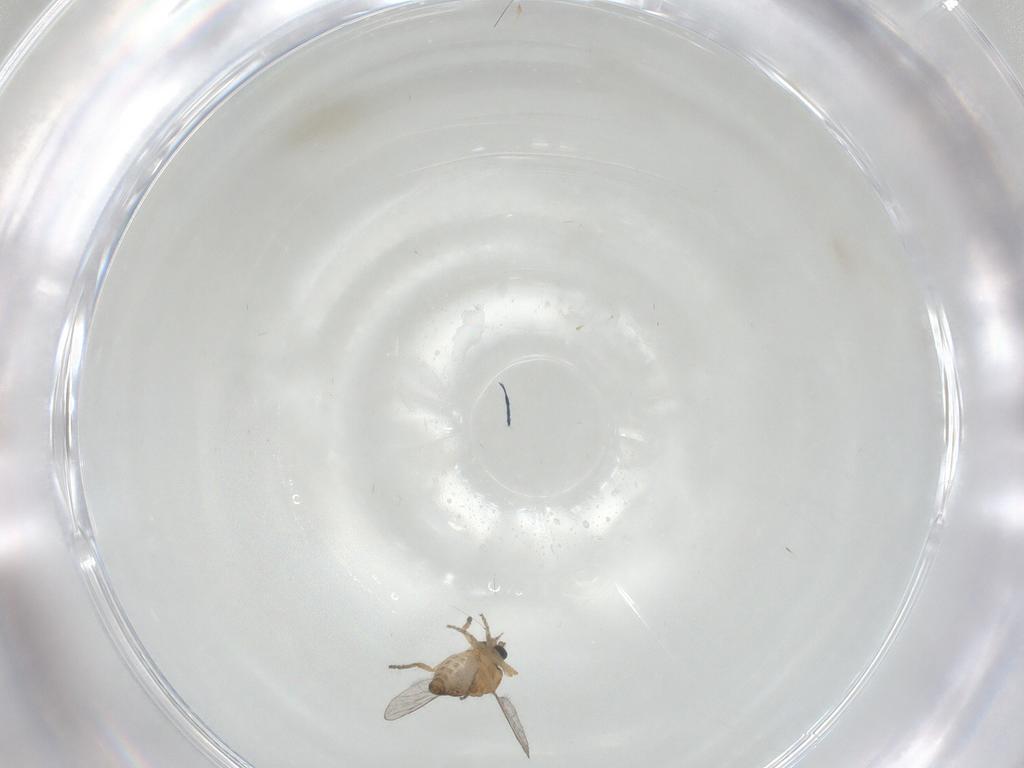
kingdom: Animalia
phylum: Arthropoda
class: Insecta
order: Diptera
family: Ceratopogonidae
